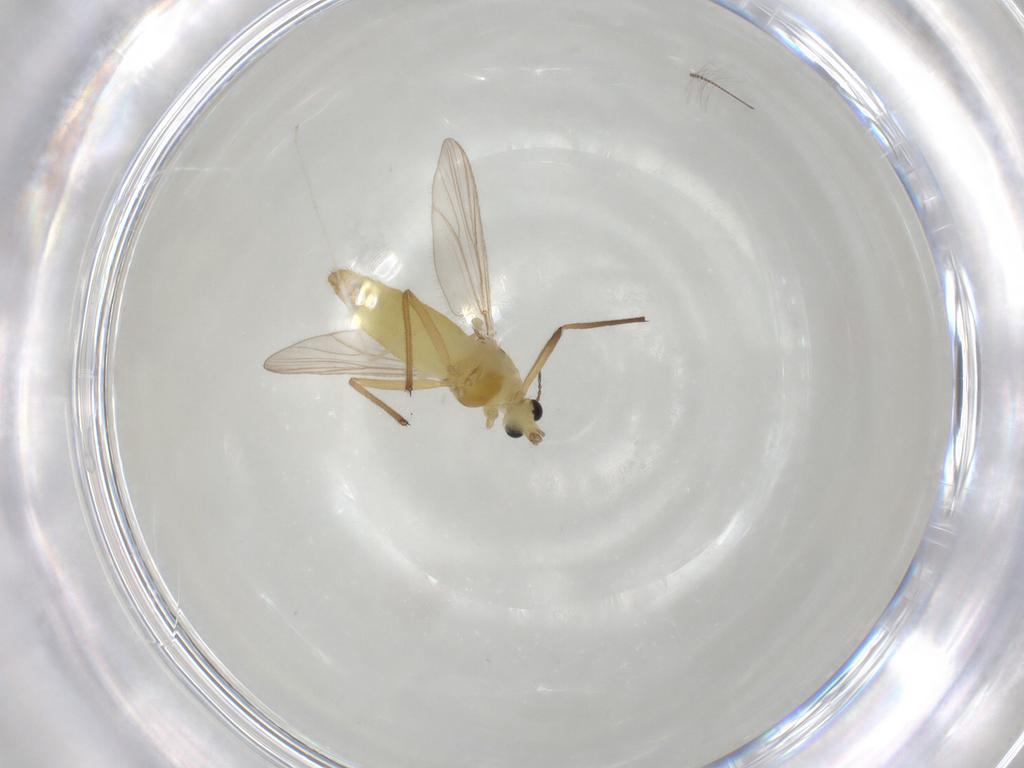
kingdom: Animalia
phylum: Arthropoda
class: Insecta
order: Diptera
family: Chironomidae
